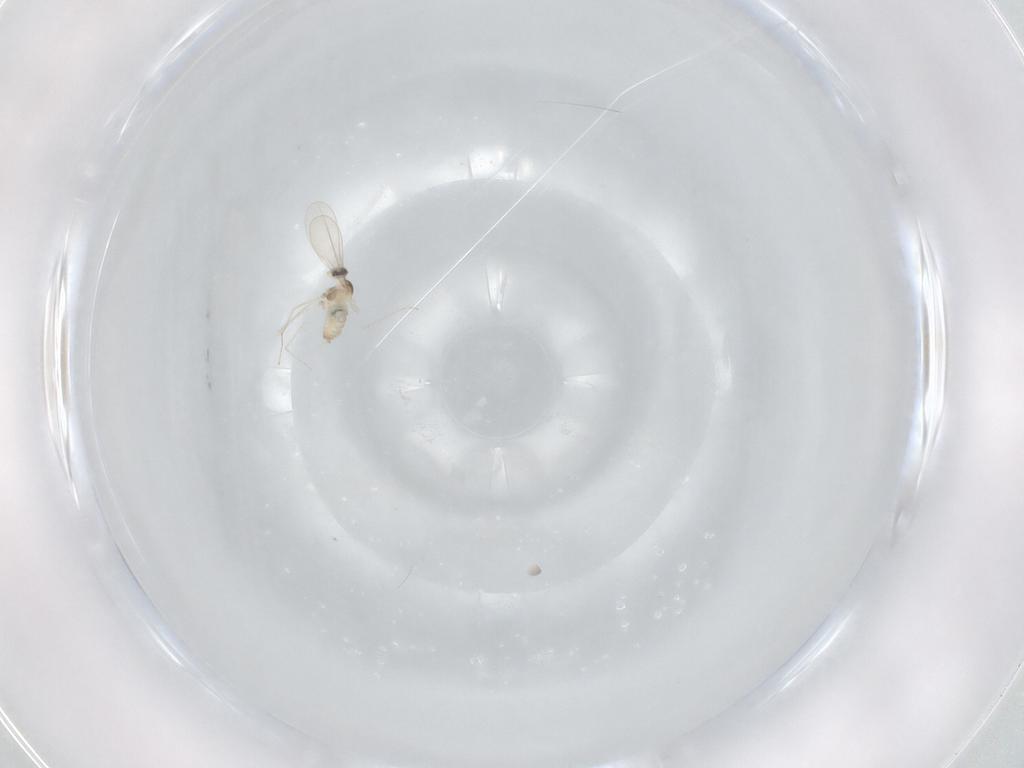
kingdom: Animalia
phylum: Arthropoda
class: Insecta
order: Diptera
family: Cecidomyiidae
